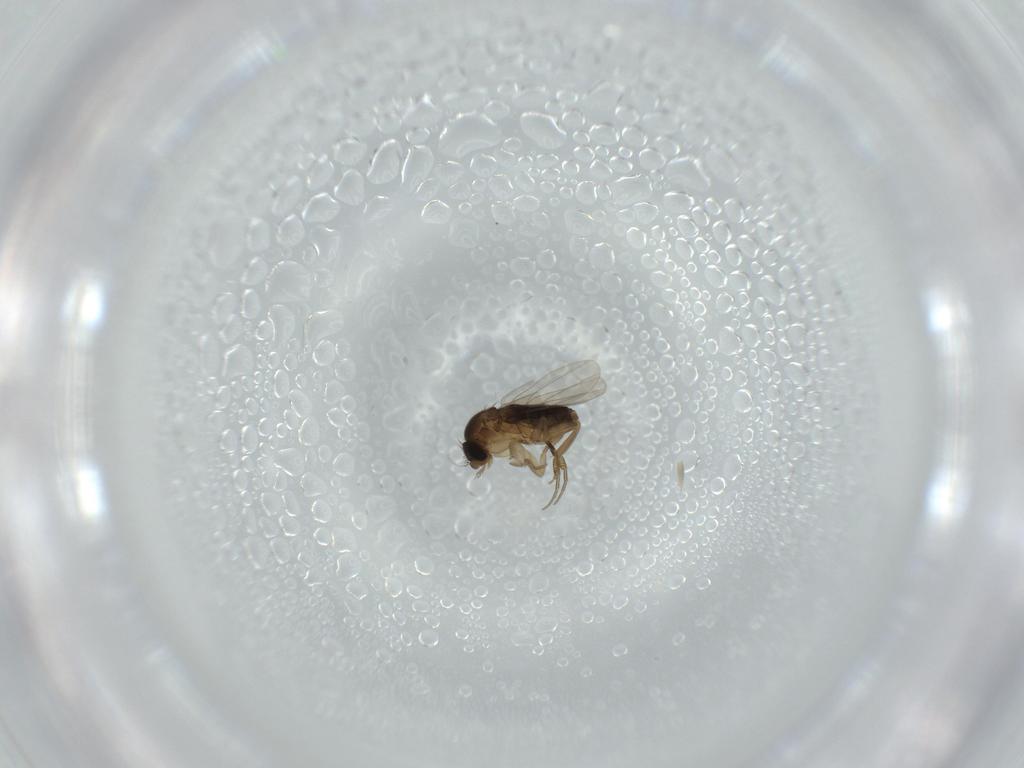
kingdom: Animalia
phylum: Arthropoda
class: Insecta
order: Diptera
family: Phoridae
